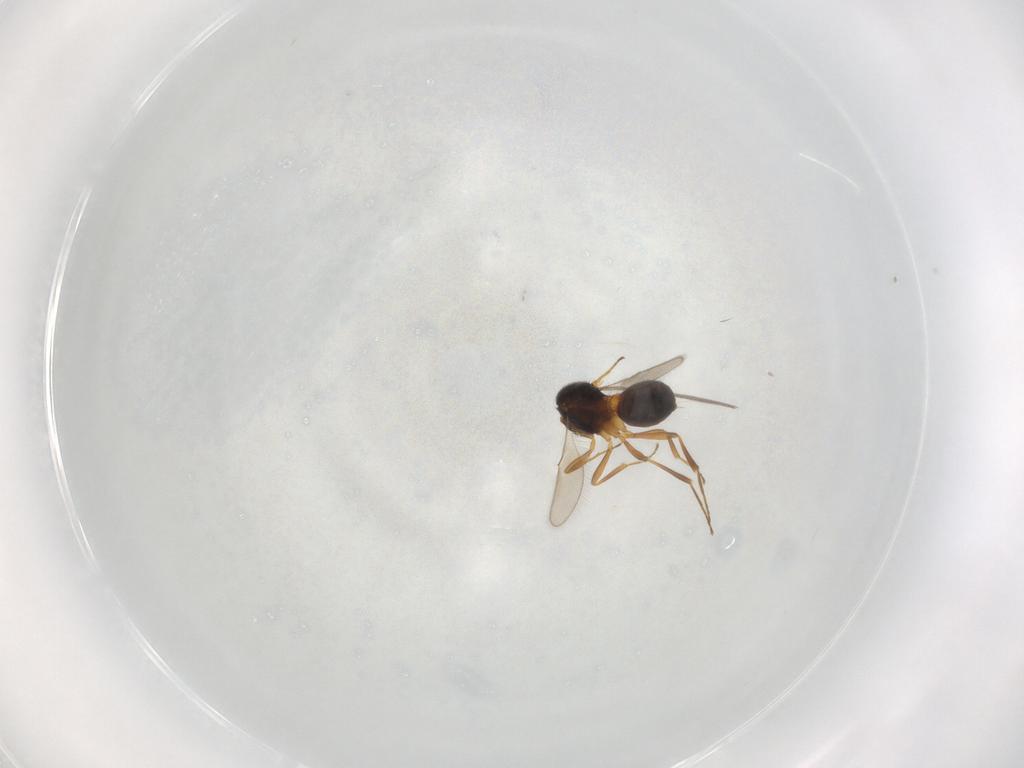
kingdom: Animalia
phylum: Arthropoda
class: Insecta
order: Hymenoptera
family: Scelionidae
